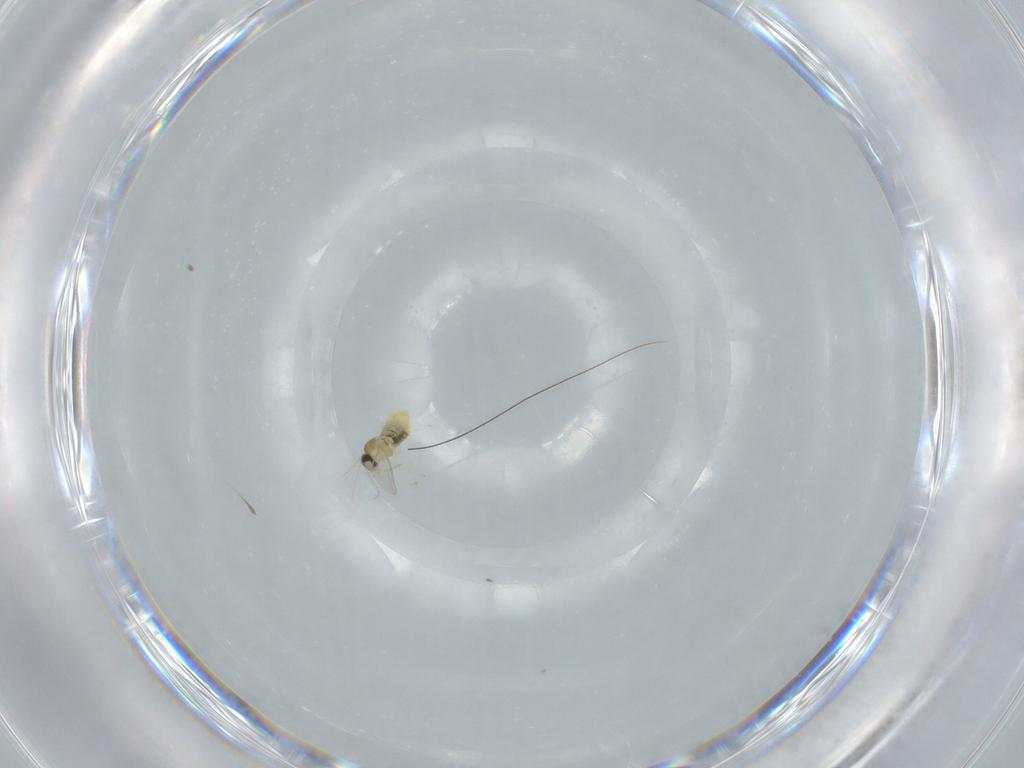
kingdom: Animalia
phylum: Arthropoda
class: Insecta
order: Diptera
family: Cecidomyiidae
